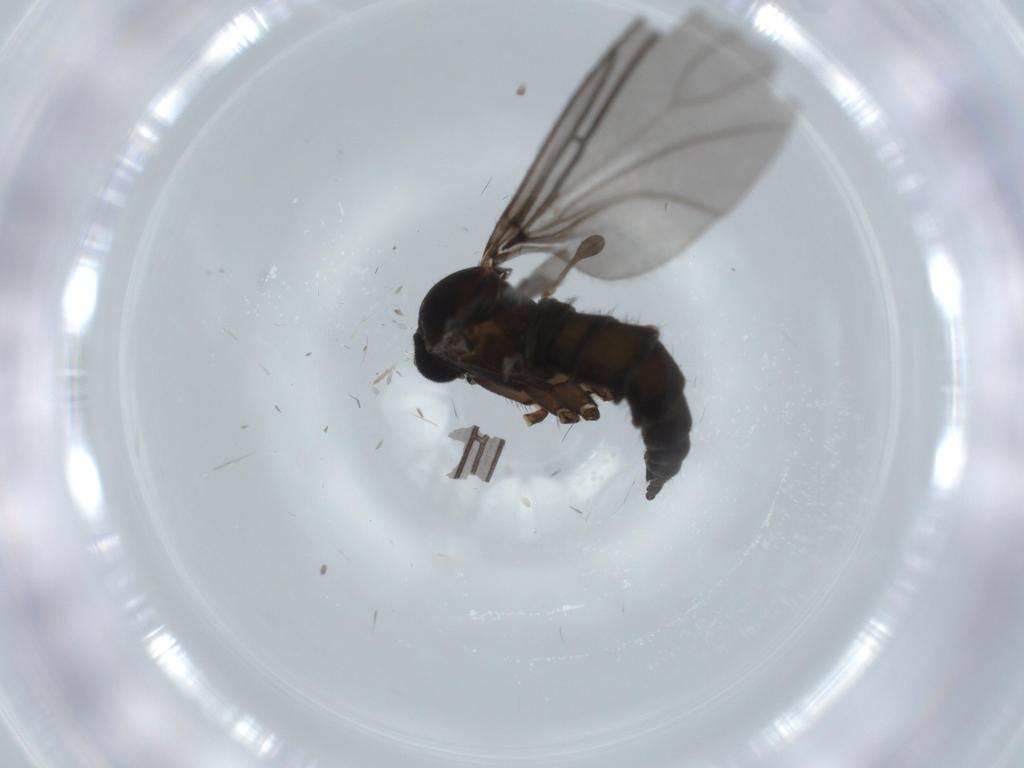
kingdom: Animalia
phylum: Arthropoda
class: Insecta
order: Diptera
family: Sciaridae
